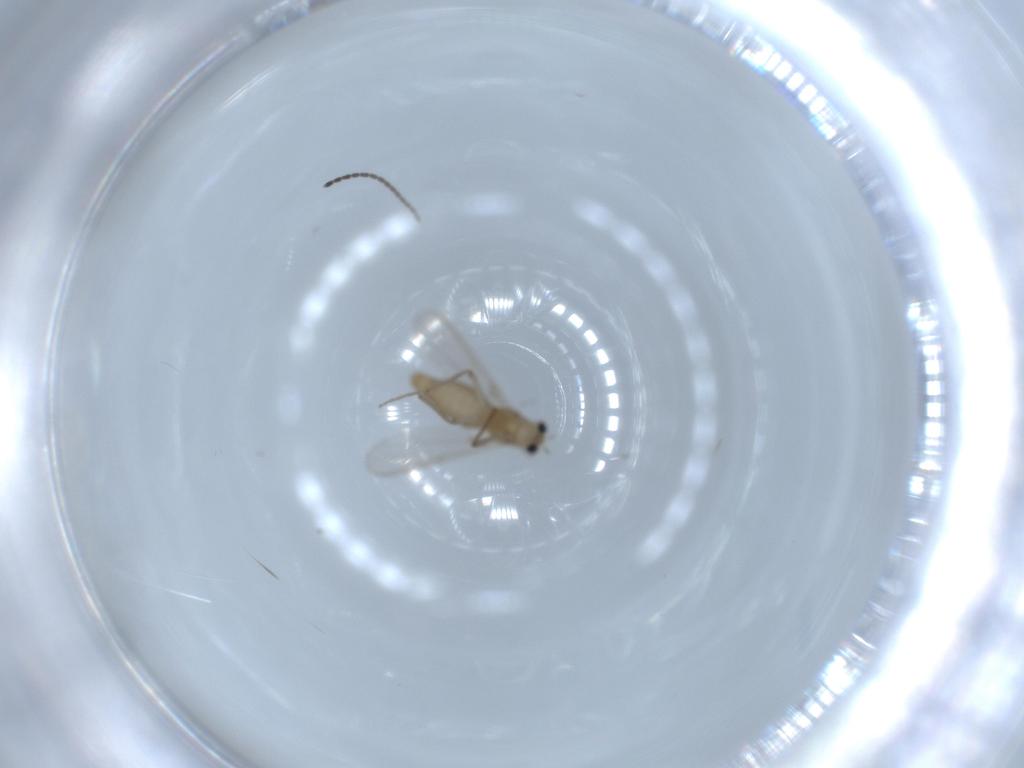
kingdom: Animalia
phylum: Arthropoda
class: Insecta
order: Diptera
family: Chironomidae
